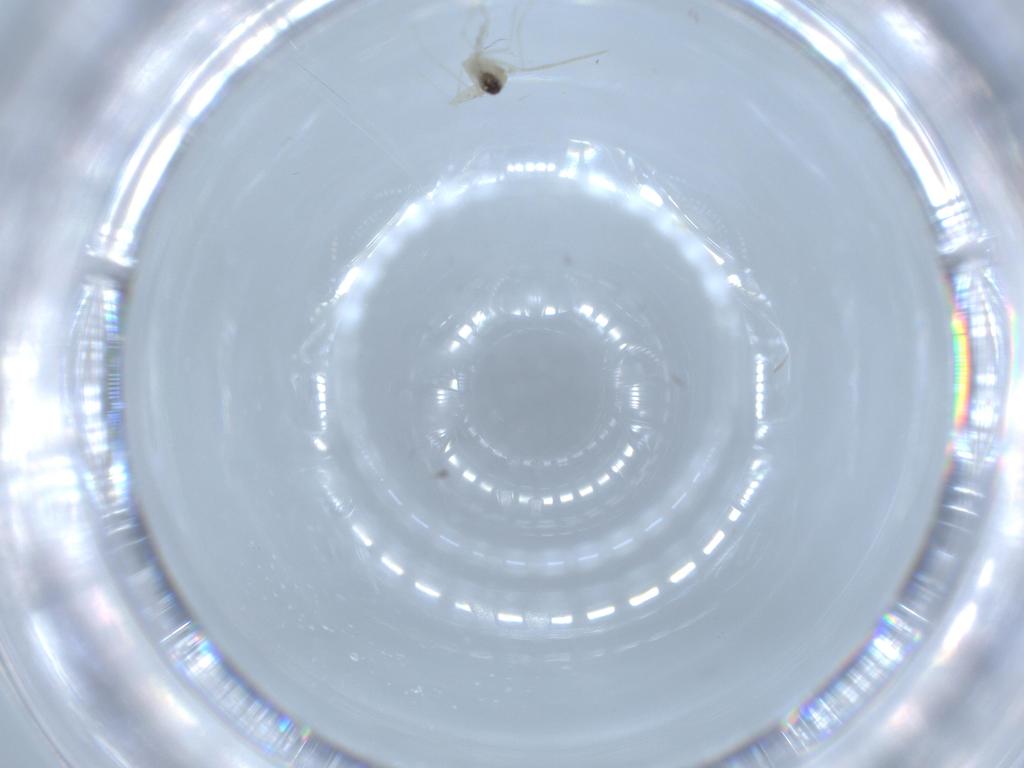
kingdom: Animalia
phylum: Arthropoda
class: Insecta
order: Diptera
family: Cecidomyiidae
